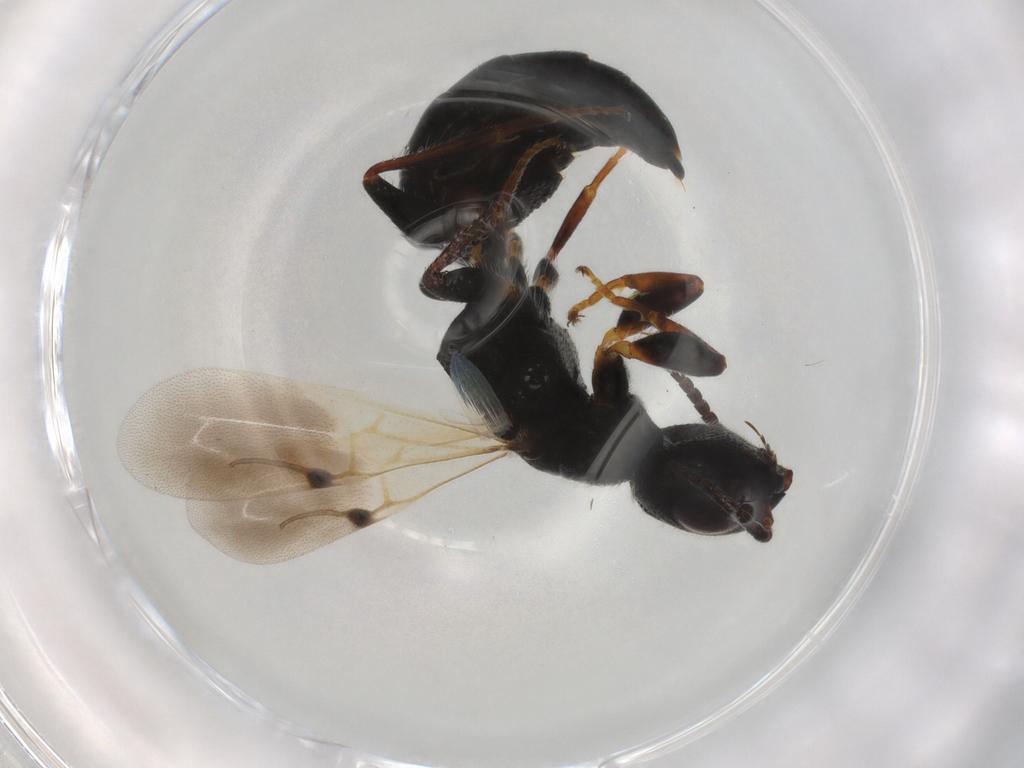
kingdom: Animalia
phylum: Arthropoda
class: Insecta
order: Hymenoptera
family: Bethylidae
